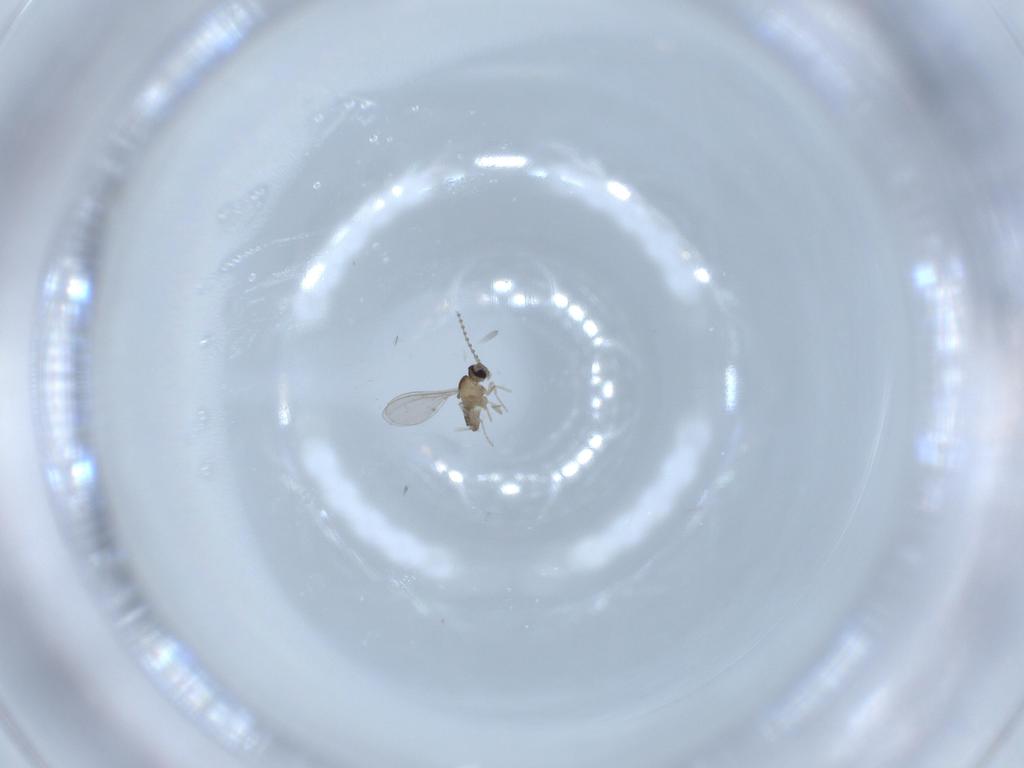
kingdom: Animalia
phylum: Arthropoda
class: Insecta
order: Diptera
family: Cecidomyiidae
